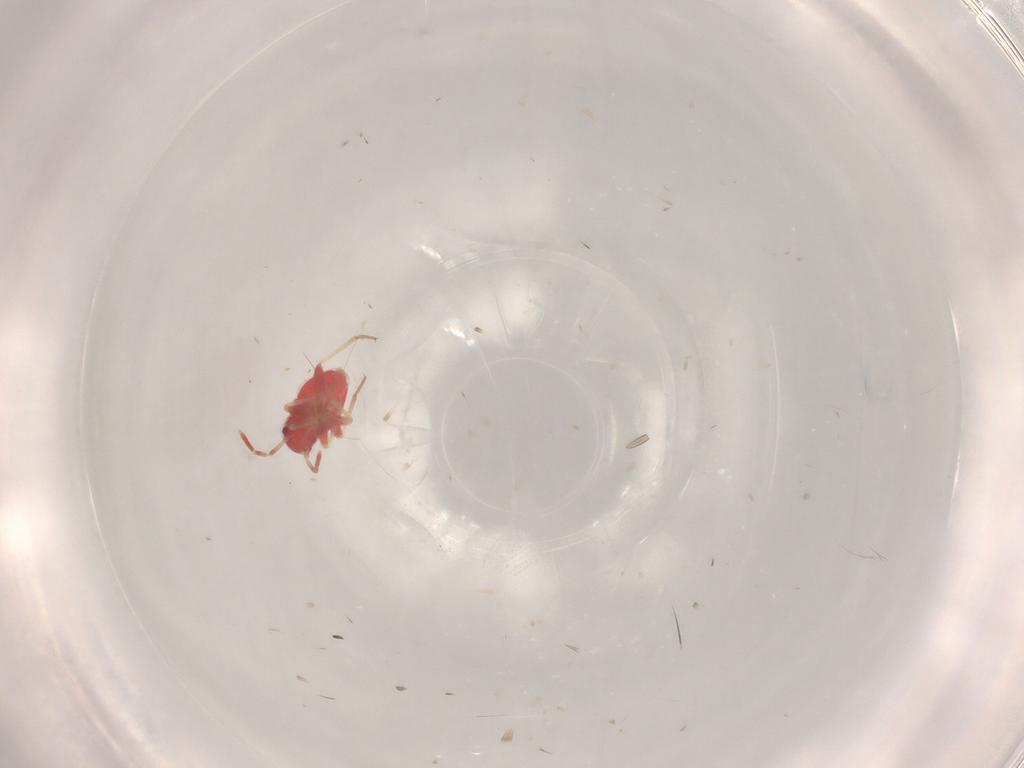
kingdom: Animalia
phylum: Arthropoda
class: Insecta
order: Hemiptera
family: Miridae
